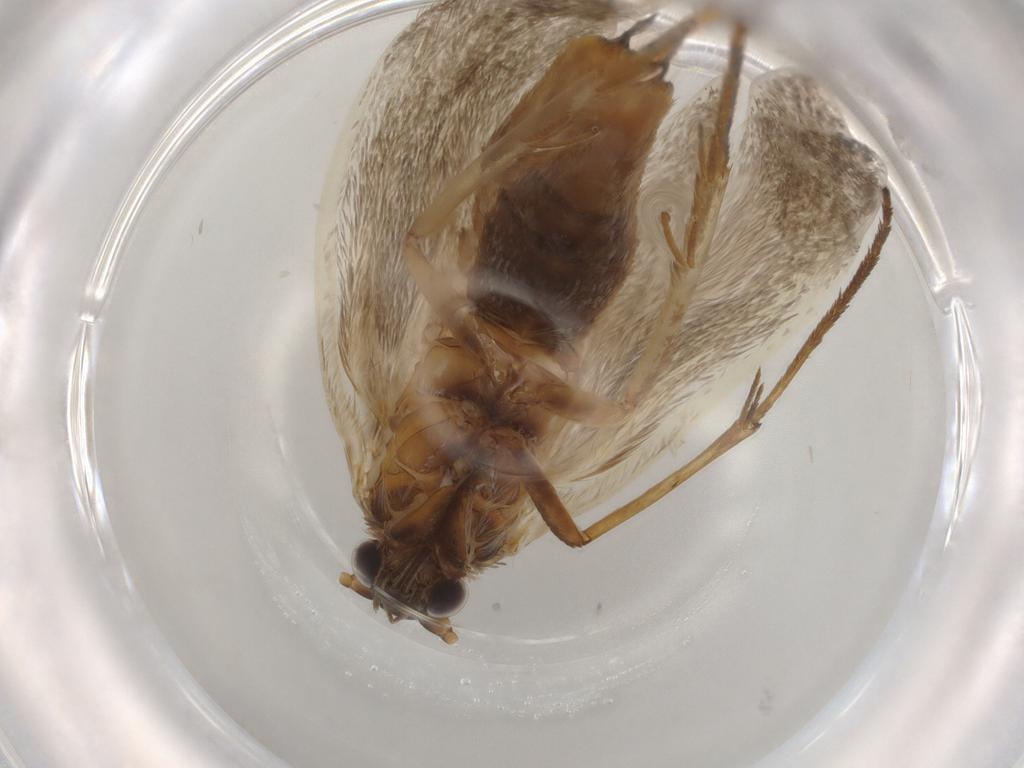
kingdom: Animalia
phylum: Arthropoda
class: Insecta
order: Lepidoptera
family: Adelidae
